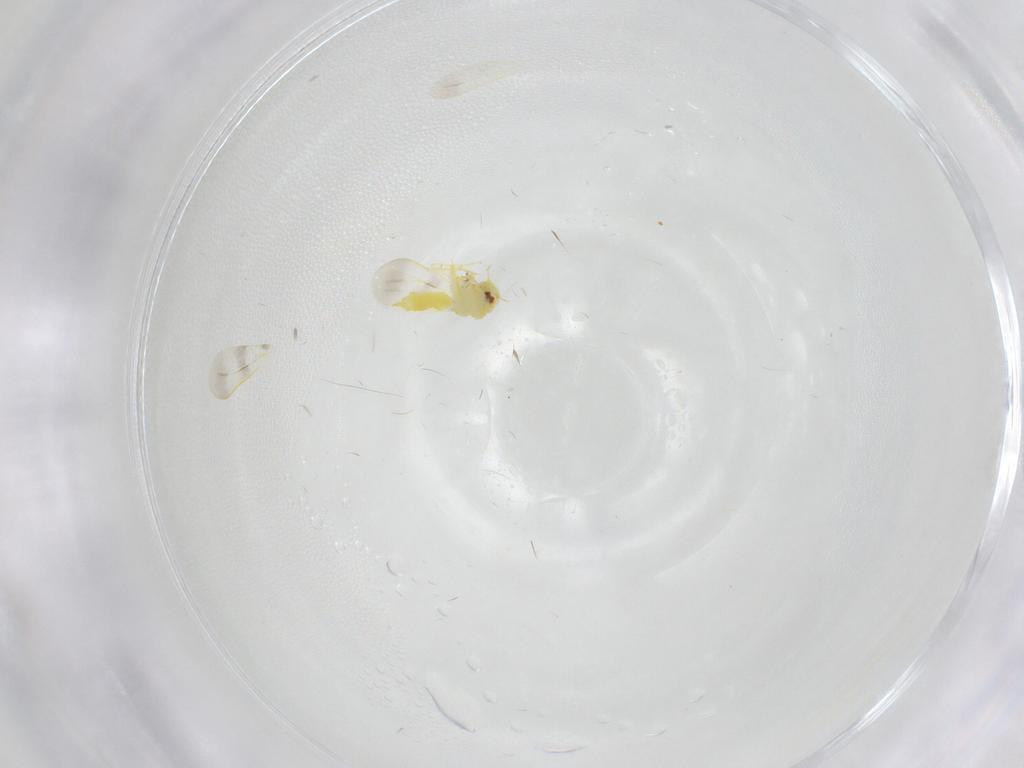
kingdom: Animalia
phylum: Arthropoda
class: Insecta
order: Hemiptera
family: Aleyrodidae
